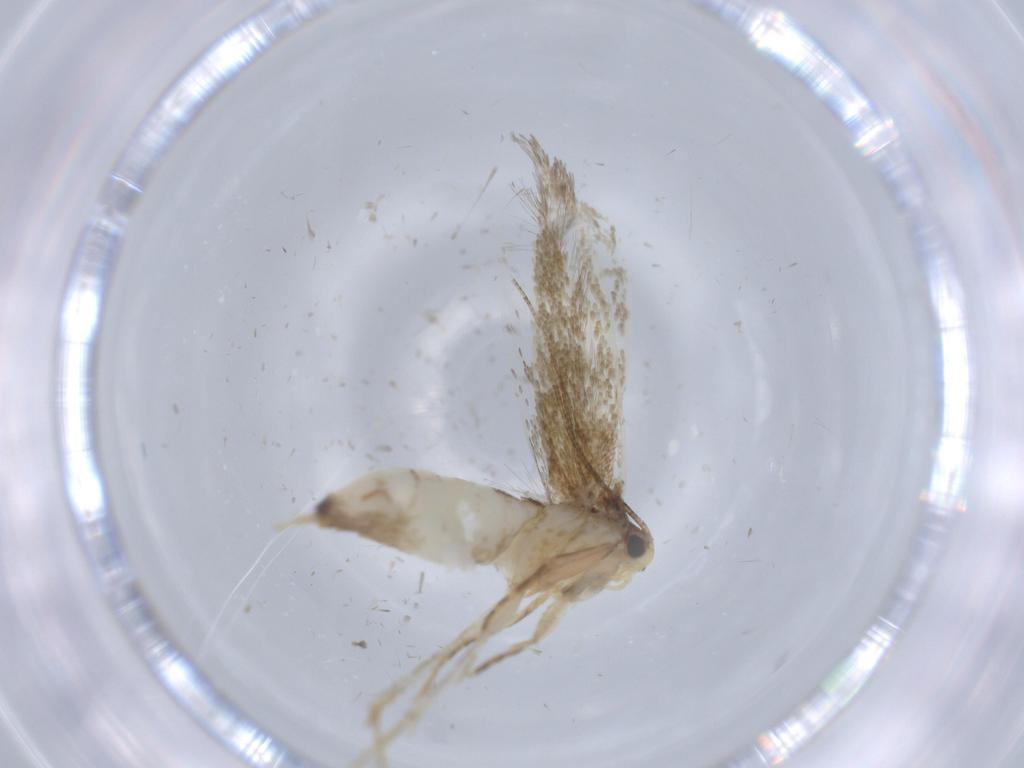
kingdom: Animalia
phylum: Arthropoda
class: Insecta
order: Lepidoptera
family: Tineidae
